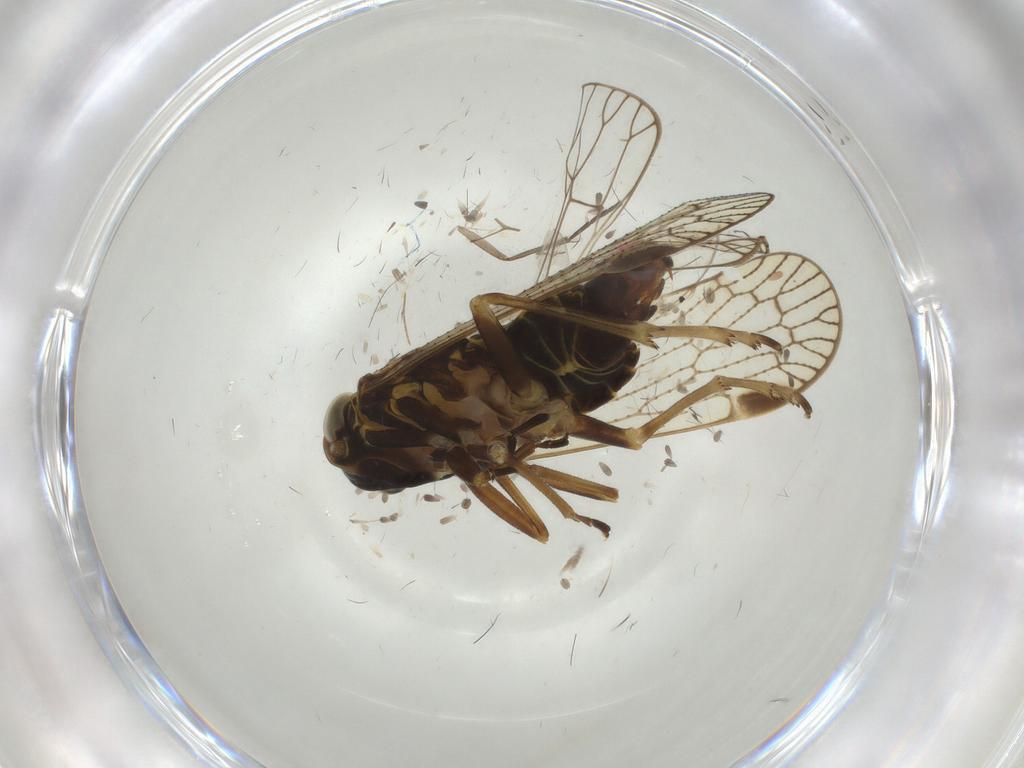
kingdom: Animalia
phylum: Arthropoda
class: Insecta
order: Hemiptera
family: Cixiidae
